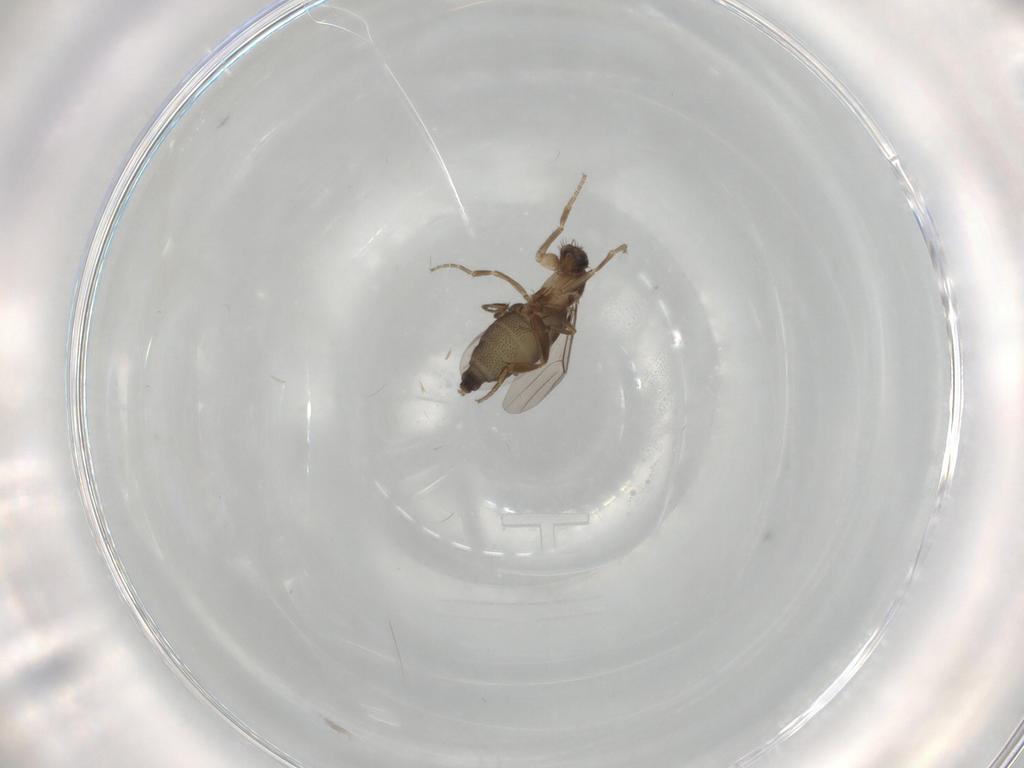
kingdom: Animalia
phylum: Arthropoda
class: Insecta
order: Diptera
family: Phoridae
